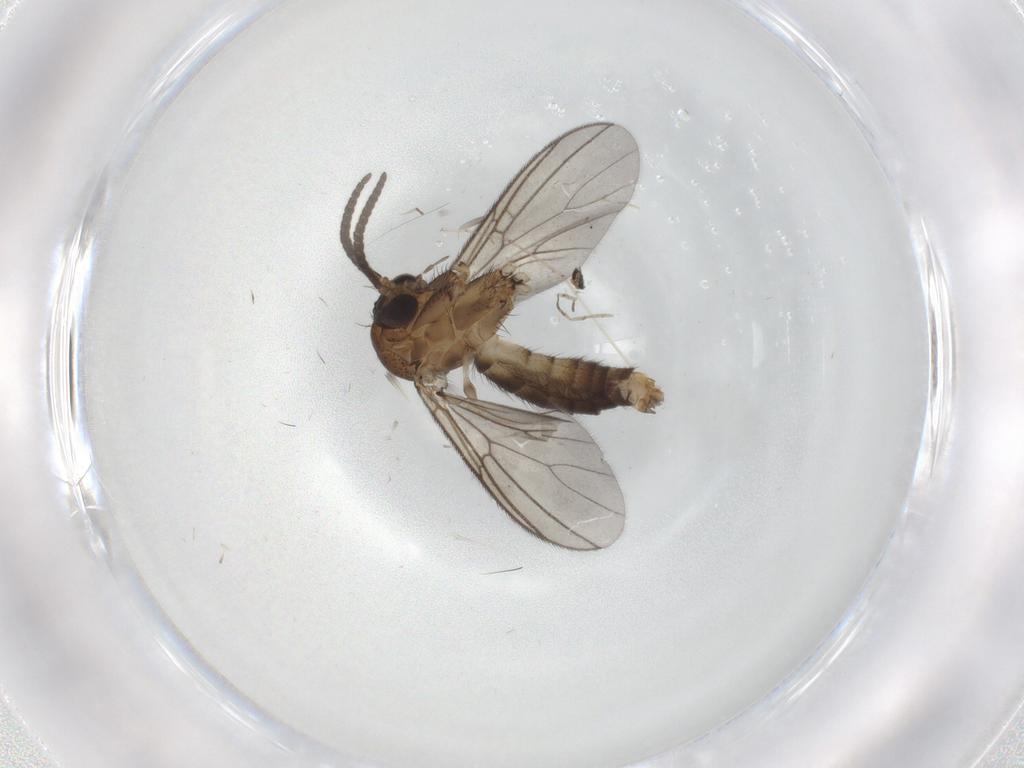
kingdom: Animalia
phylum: Arthropoda
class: Insecta
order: Diptera
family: Mycetophilidae
